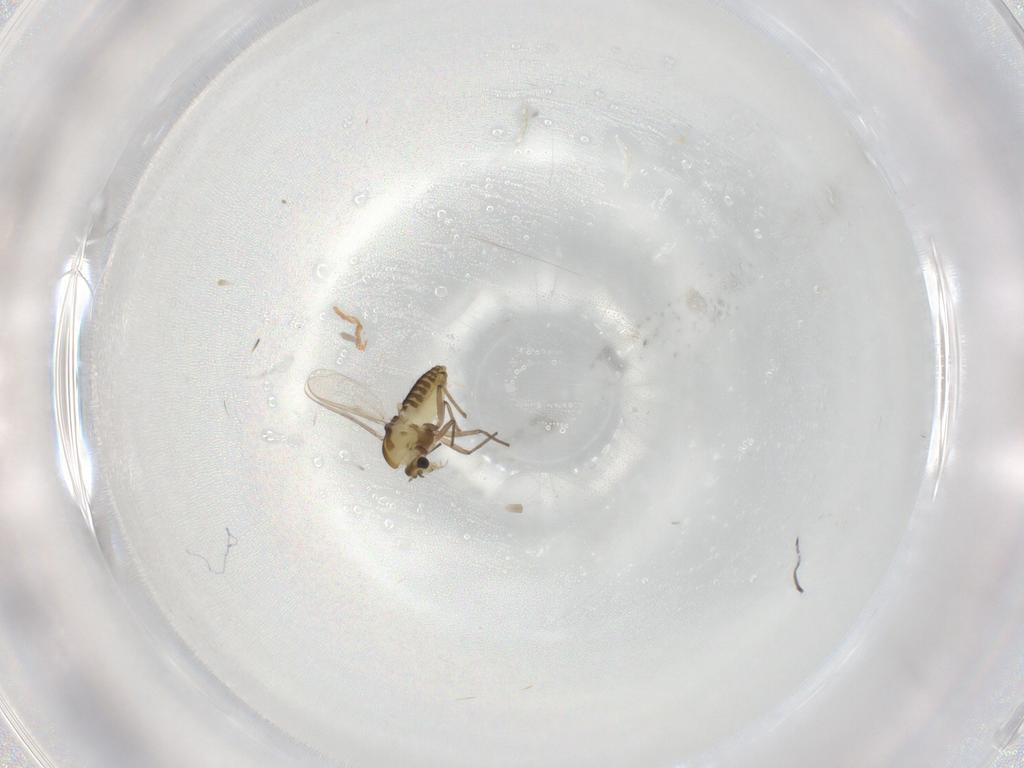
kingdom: Animalia
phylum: Arthropoda
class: Insecta
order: Diptera
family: Chironomidae
